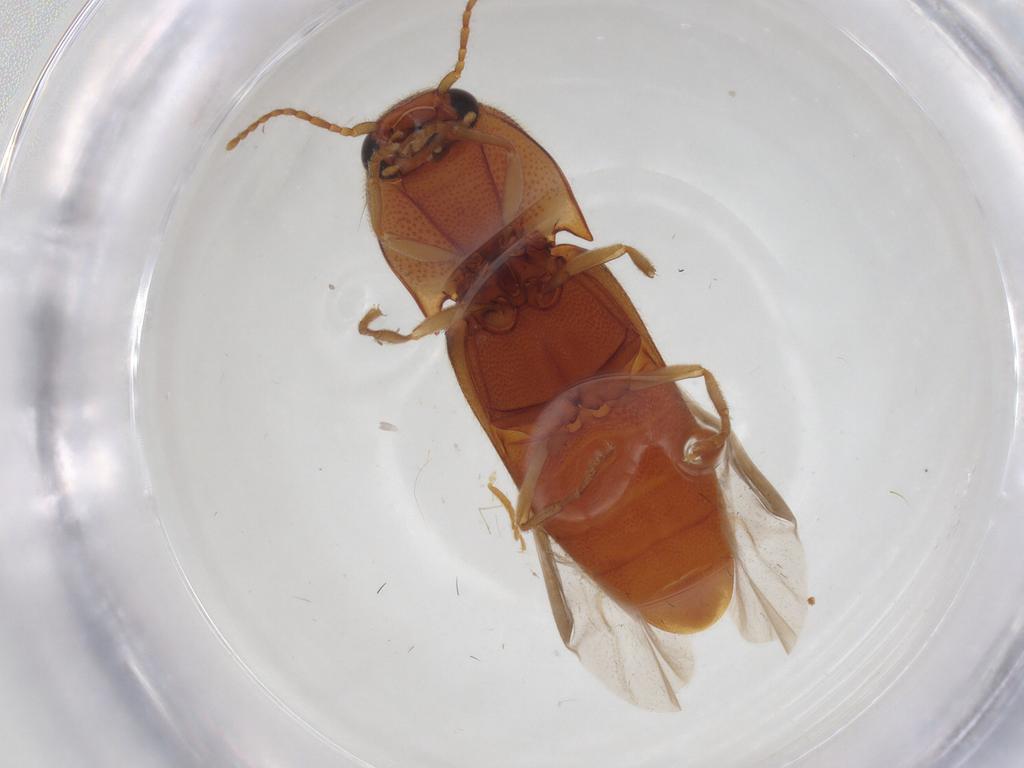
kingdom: Animalia
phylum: Arthropoda
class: Insecta
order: Coleoptera
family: Elateridae
